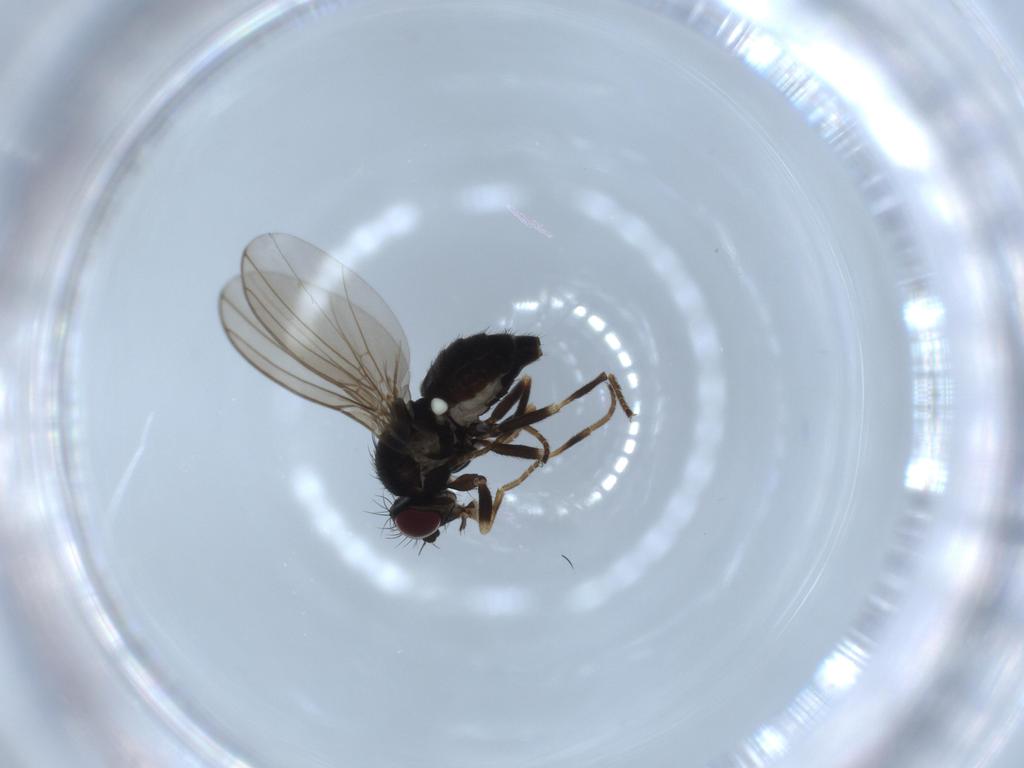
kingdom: Animalia
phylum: Arthropoda
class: Insecta
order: Diptera
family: Agromyzidae
